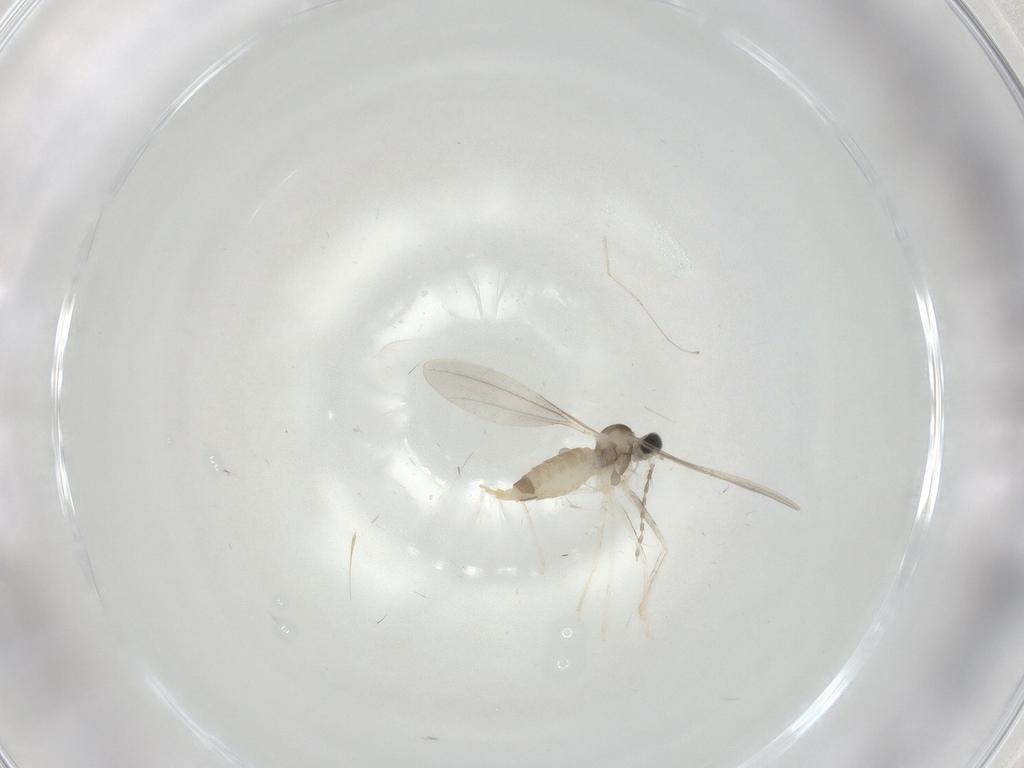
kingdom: Animalia
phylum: Arthropoda
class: Insecta
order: Diptera
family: Cecidomyiidae
